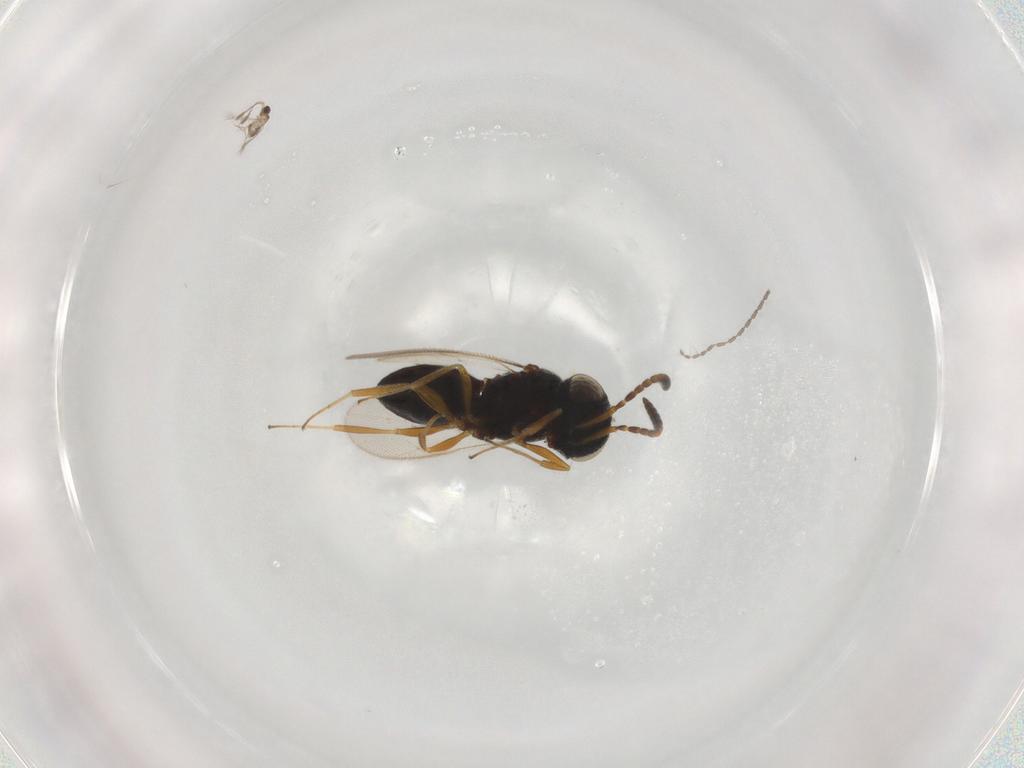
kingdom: Animalia
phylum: Arthropoda
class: Insecta
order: Hymenoptera
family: Scelionidae
